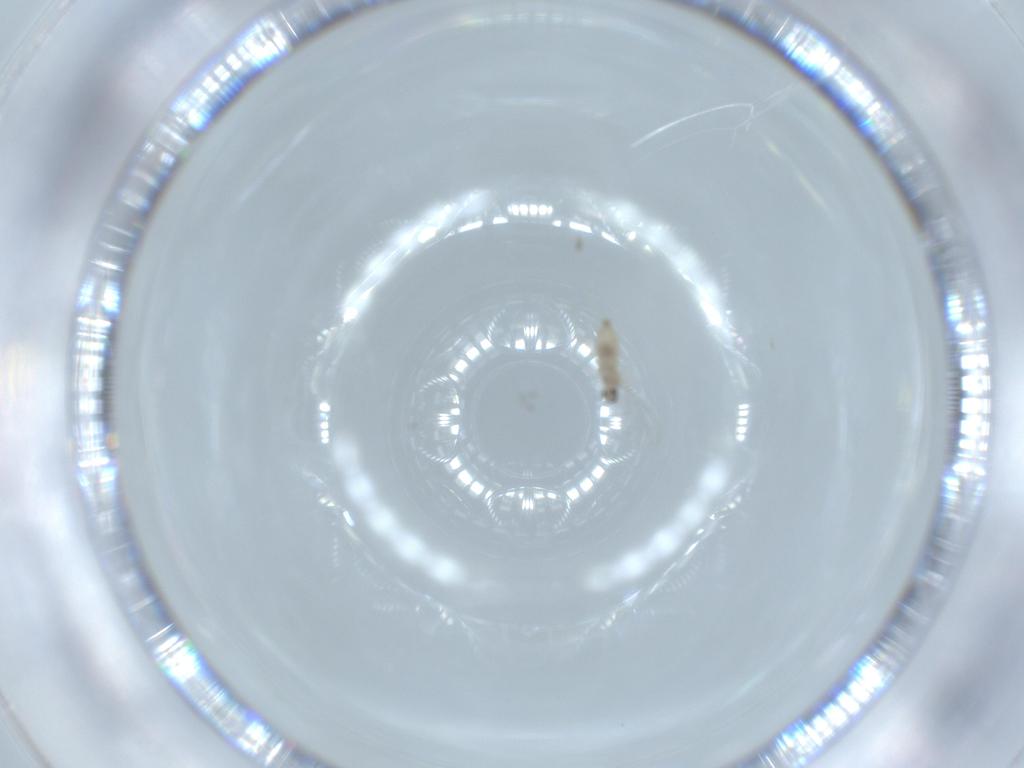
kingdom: Animalia
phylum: Arthropoda
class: Insecta
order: Diptera
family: Cecidomyiidae
